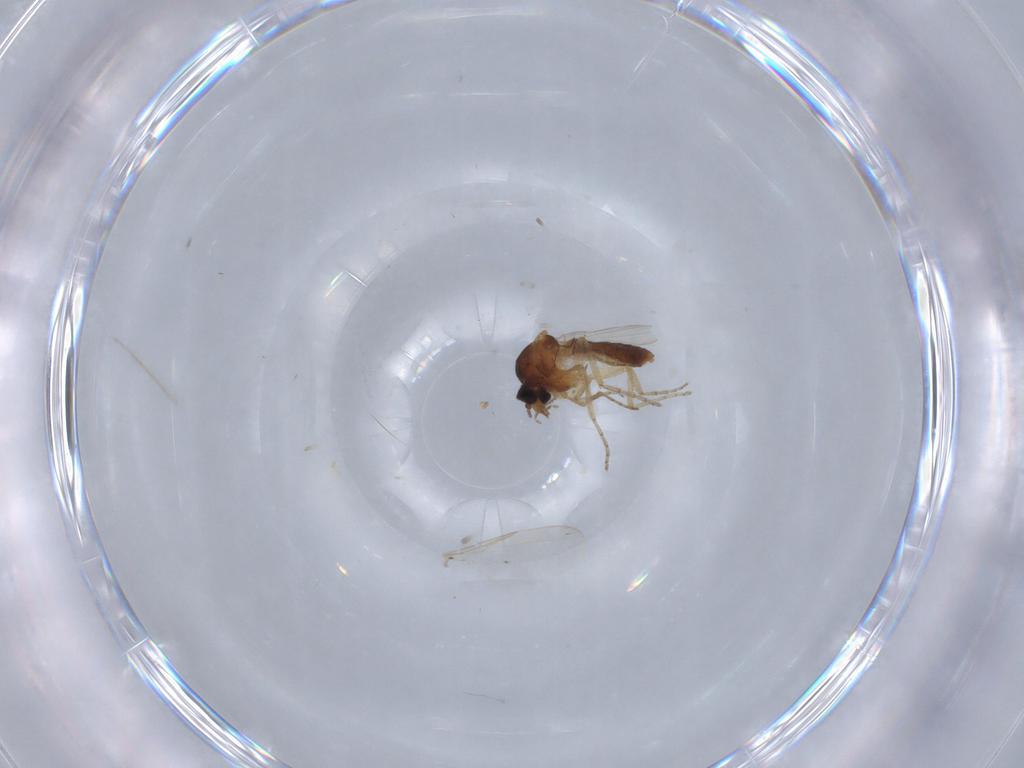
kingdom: Animalia
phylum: Arthropoda
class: Insecta
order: Diptera
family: Ceratopogonidae
